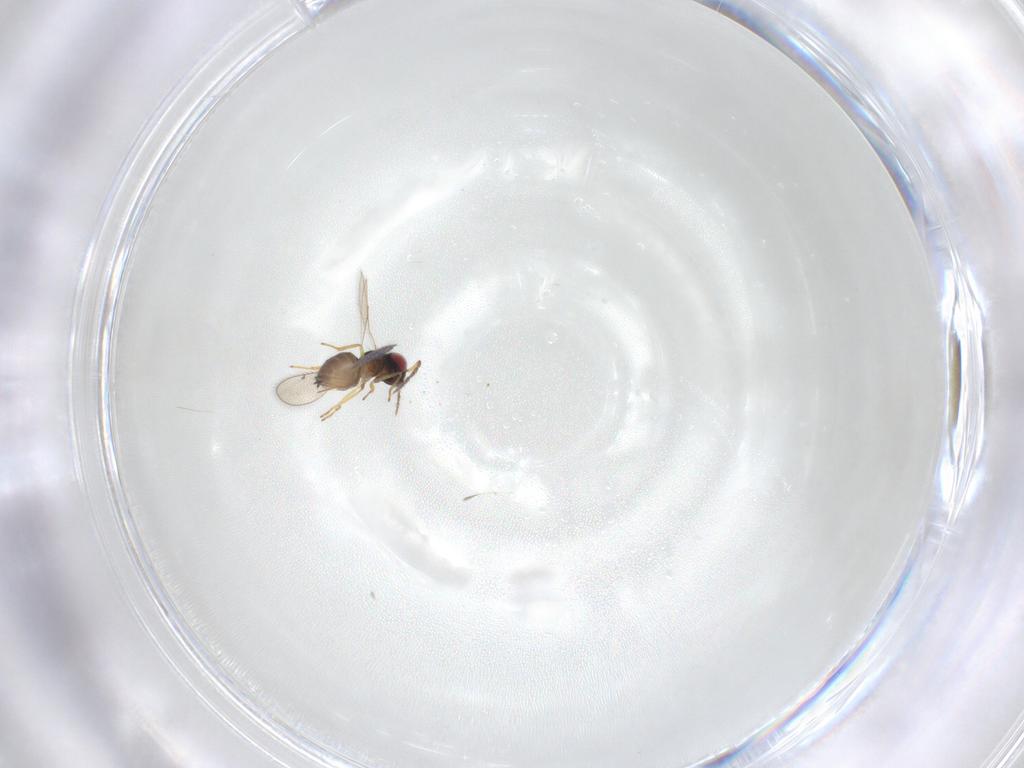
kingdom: Animalia
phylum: Arthropoda
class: Insecta
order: Hymenoptera
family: Eulophidae
